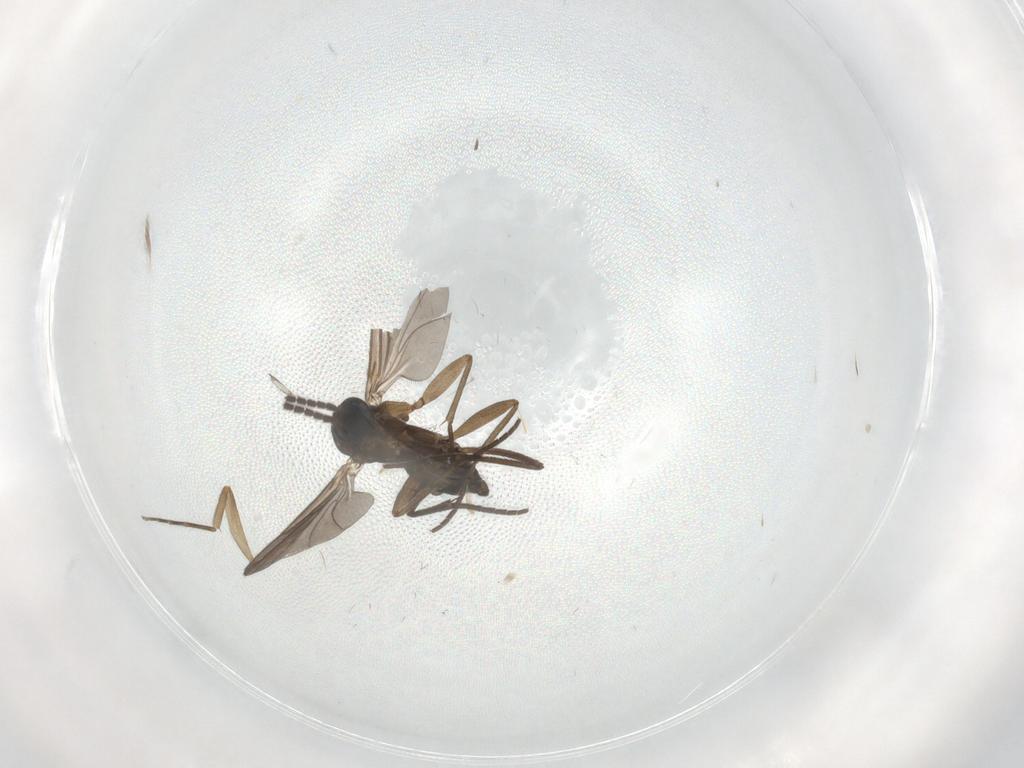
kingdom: Animalia
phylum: Arthropoda
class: Insecta
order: Diptera
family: Sciaridae
